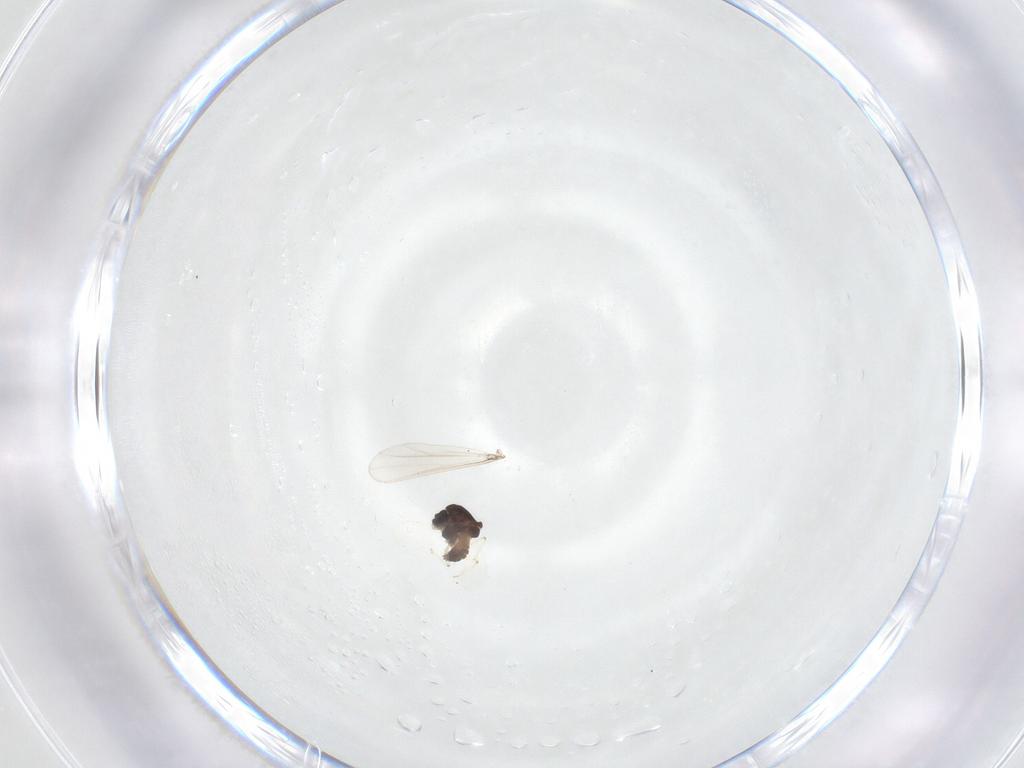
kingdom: Animalia
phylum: Arthropoda
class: Insecta
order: Diptera
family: Chironomidae
